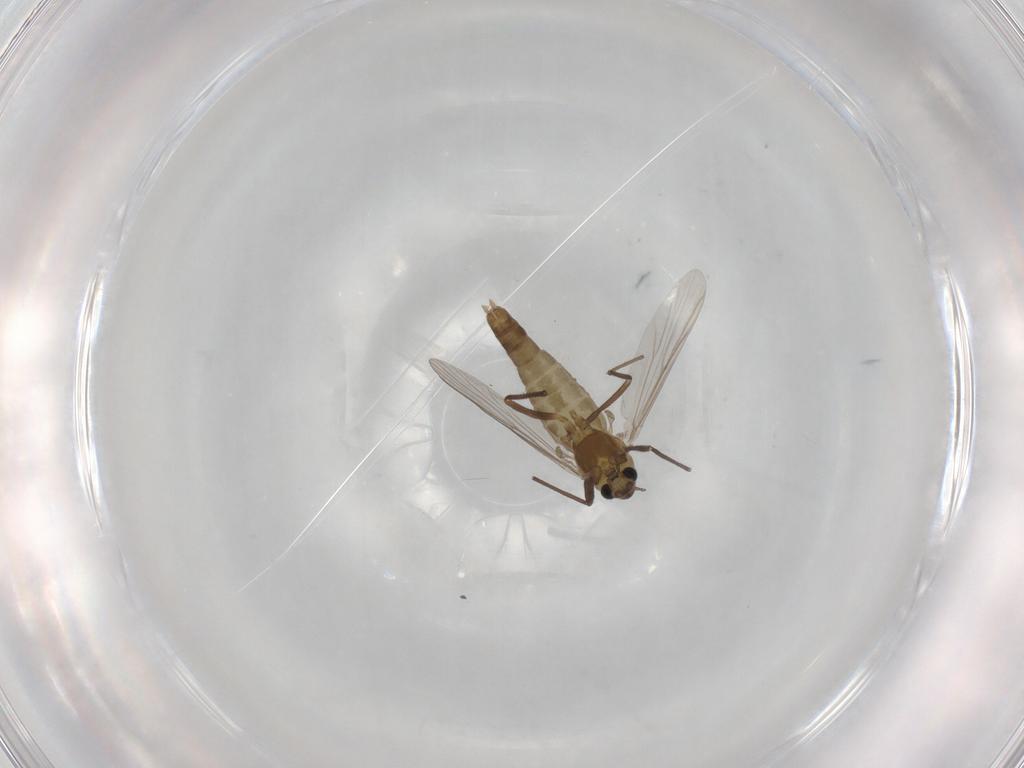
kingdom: Animalia
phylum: Arthropoda
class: Insecta
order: Diptera
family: Chironomidae
